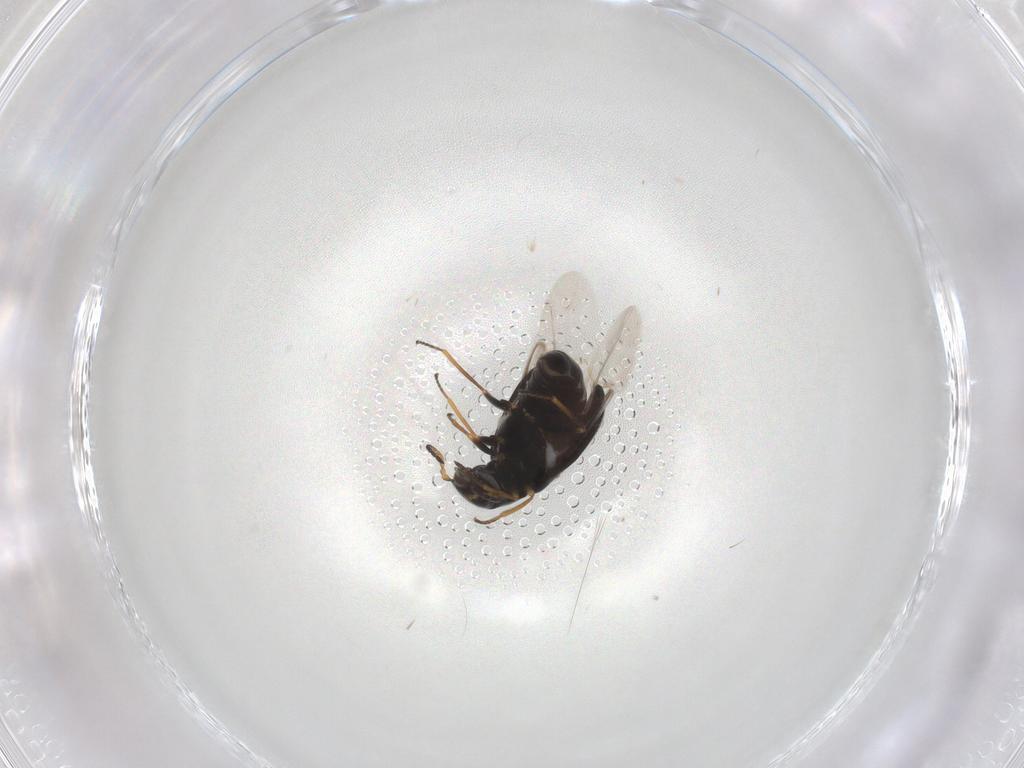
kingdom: Animalia
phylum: Arthropoda
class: Insecta
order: Coleoptera
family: Melyridae
